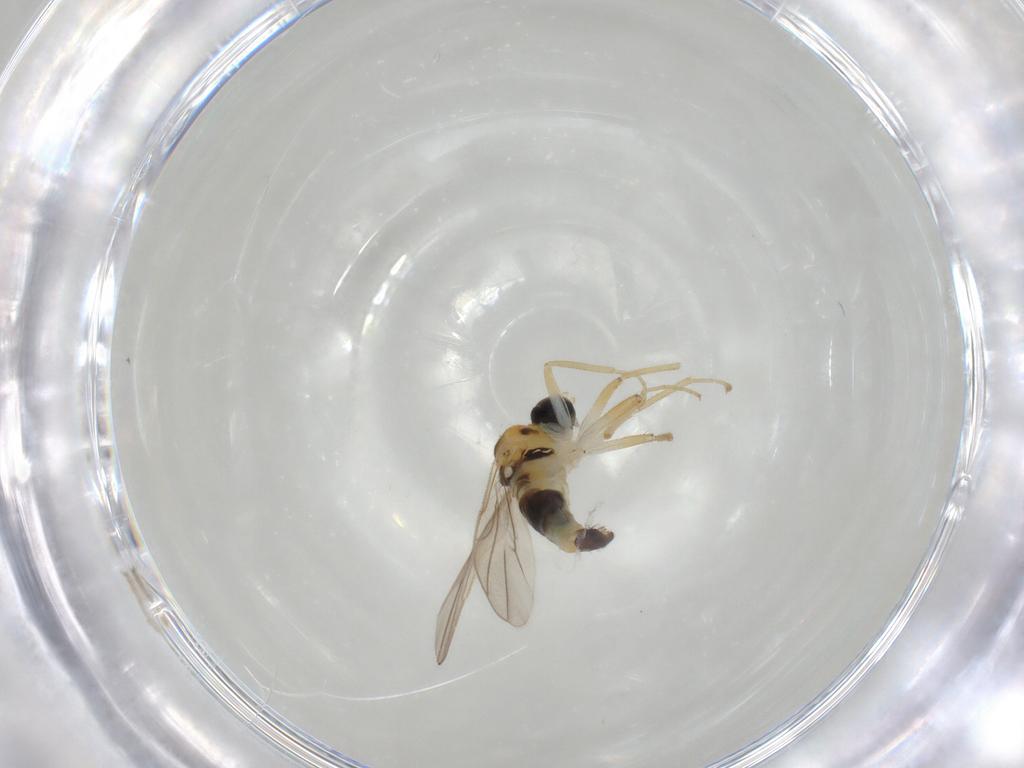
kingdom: Animalia
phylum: Arthropoda
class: Insecta
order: Diptera
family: Hybotidae
